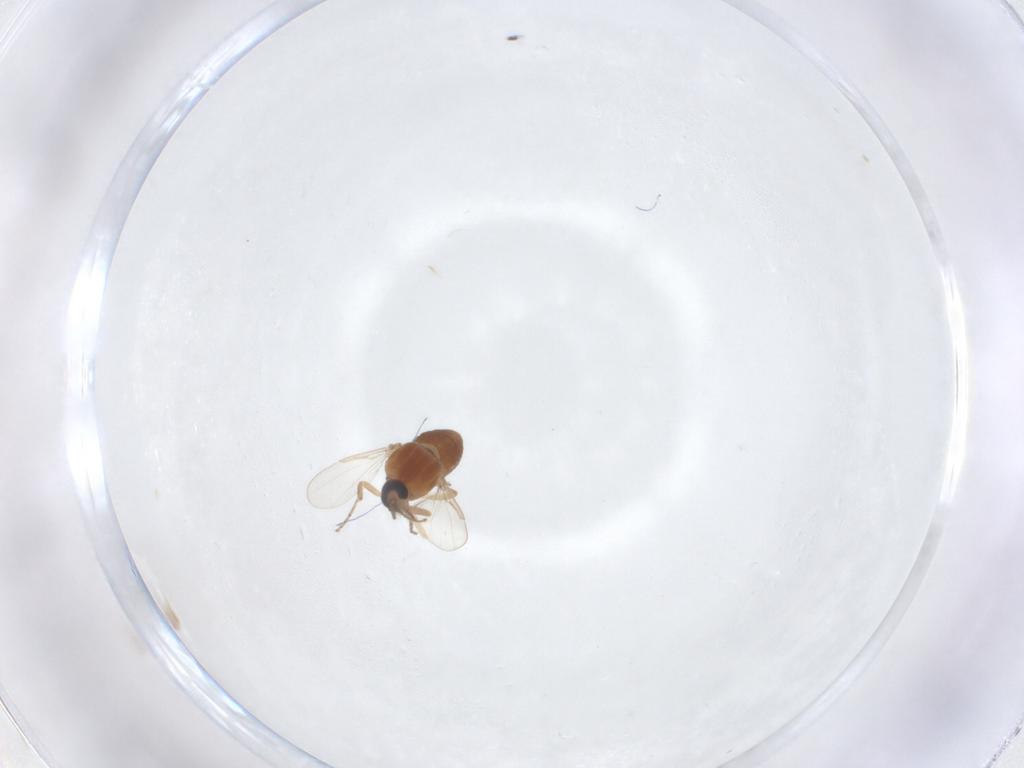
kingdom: Animalia
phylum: Arthropoda
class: Insecta
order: Diptera
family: Ceratopogonidae
